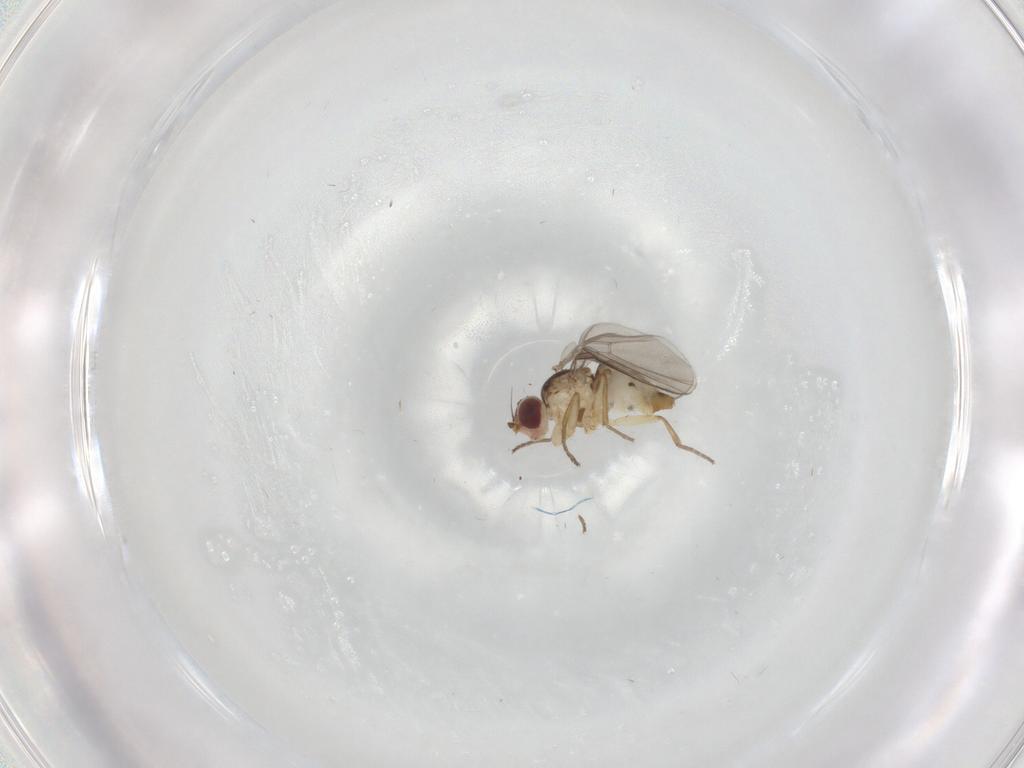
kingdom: Animalia
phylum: Arthropoda
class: Insecta
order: Diptera
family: Agromyzidae
